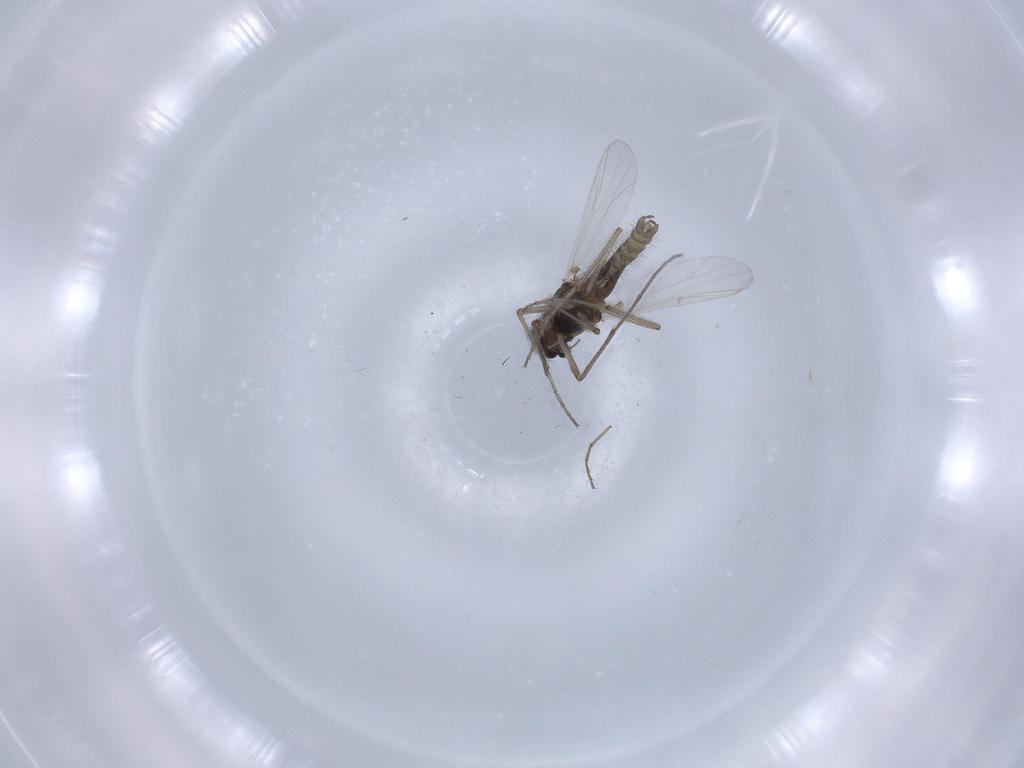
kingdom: Animalia
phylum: Arthropoda
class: Insecta
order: Diptera
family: Chironomidae
